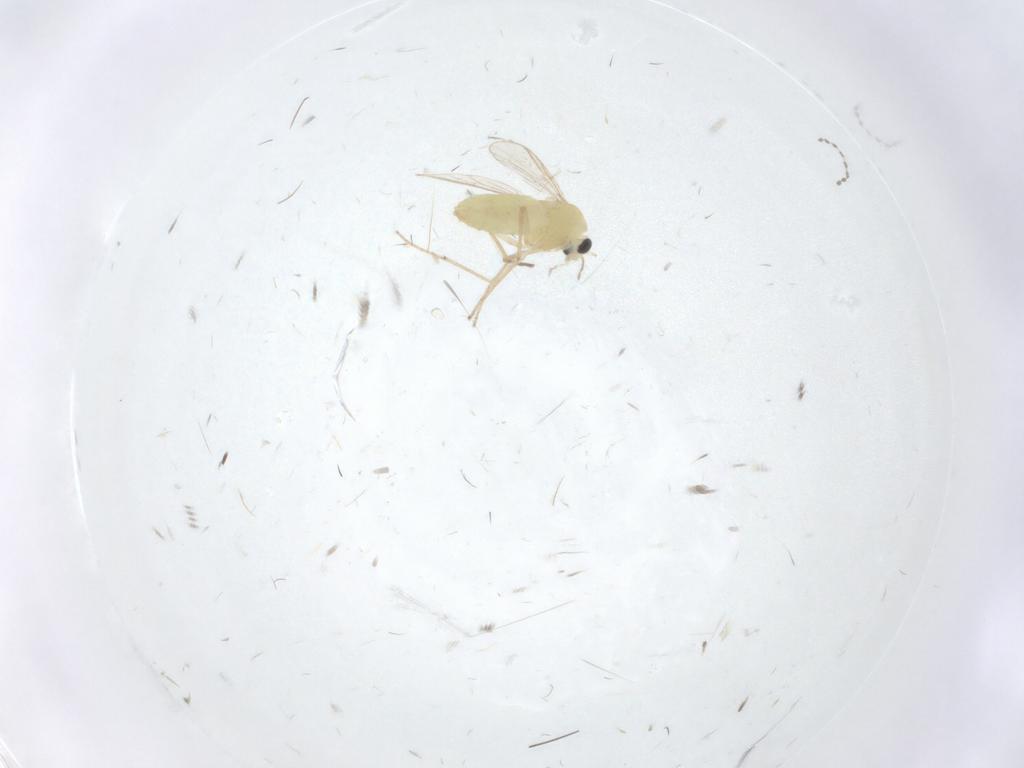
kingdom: Animalia
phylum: Arthropoda
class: Insecta
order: Diptera
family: Chironomidae
